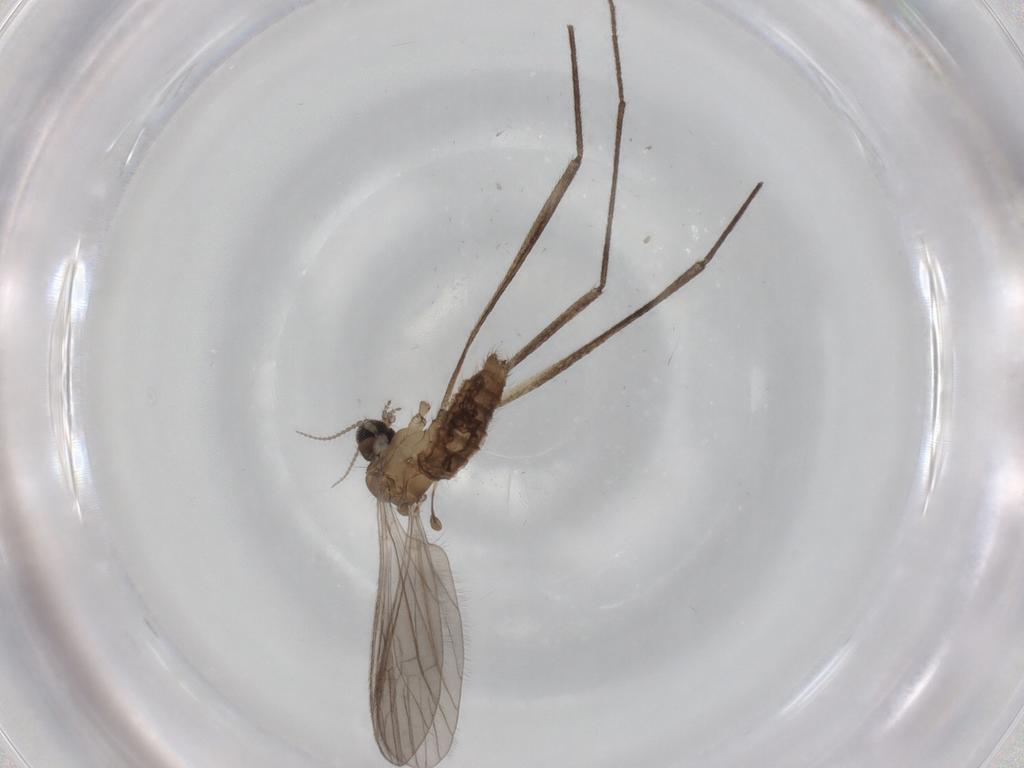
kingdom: Animalia
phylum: Arthropoda
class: Insecta
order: Diptera
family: Limoniidae
